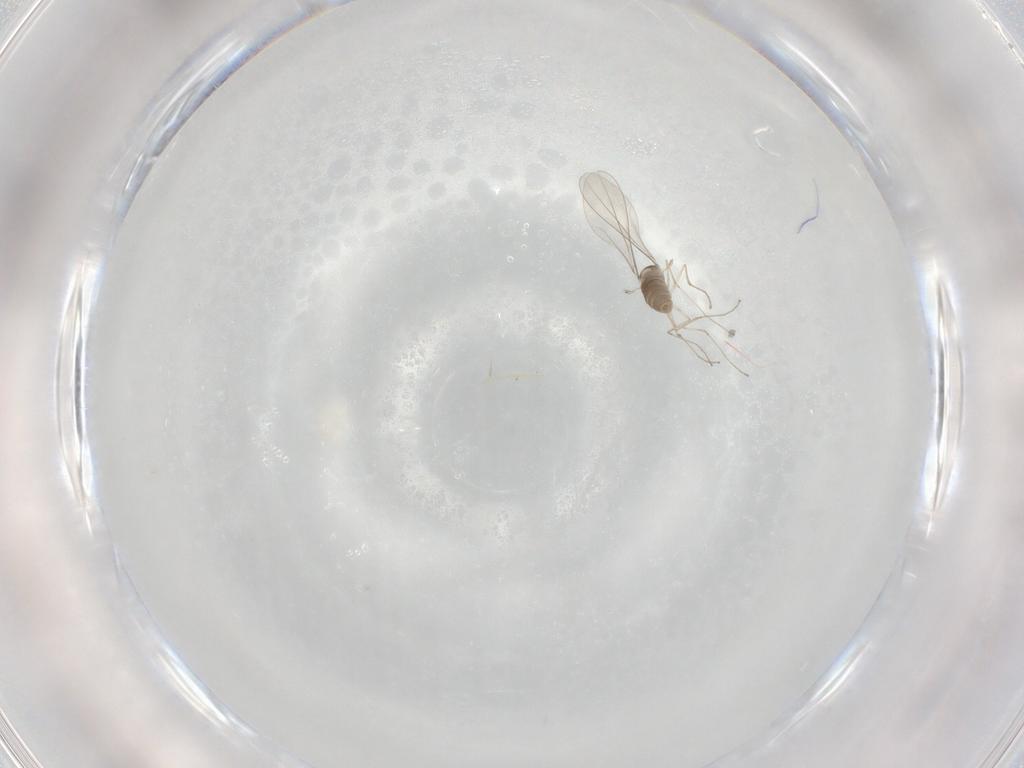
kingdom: Animalia
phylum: Arthropoda
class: Insecta
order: Diptera
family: Cecidomyiidae
